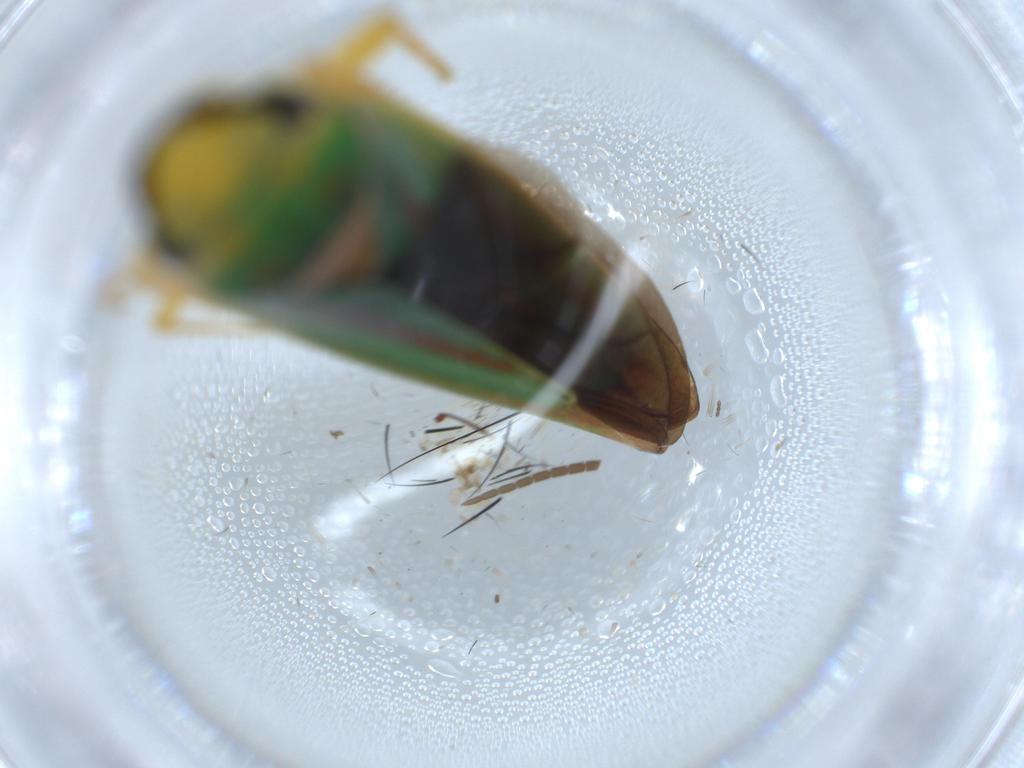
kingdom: Animalia
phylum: Arthropoda
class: Insecta
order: Hemiptera
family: Cicadellidae
